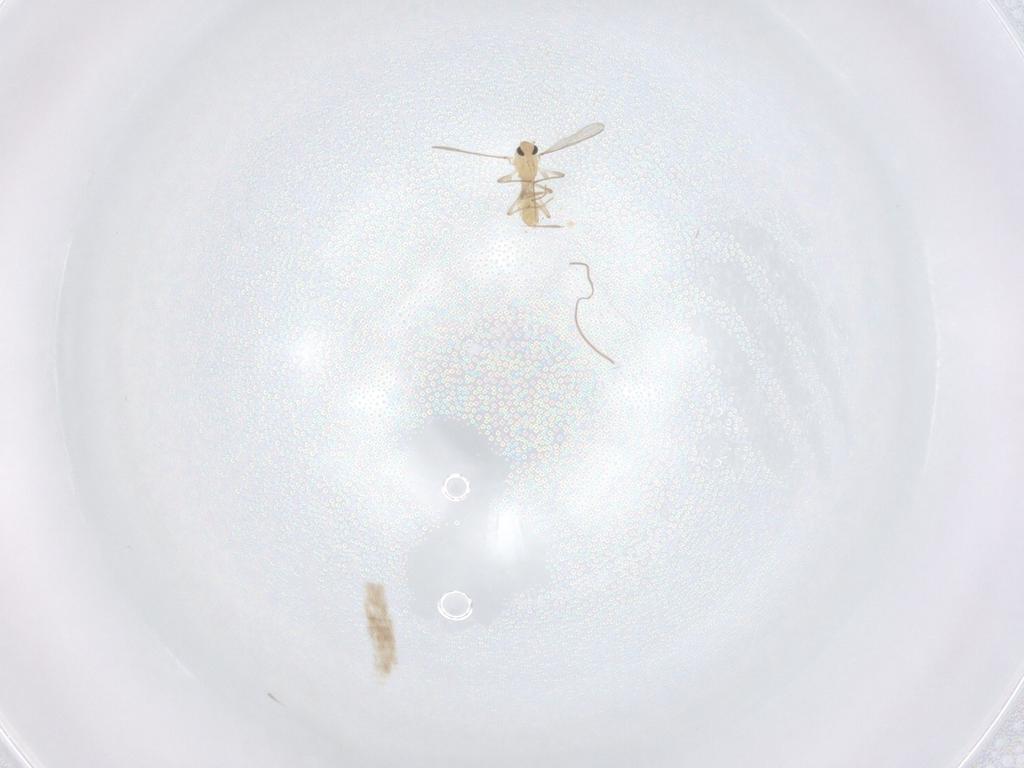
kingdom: Animalia
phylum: Arthropoda
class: Insecta
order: Diptera
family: Chironomidae
